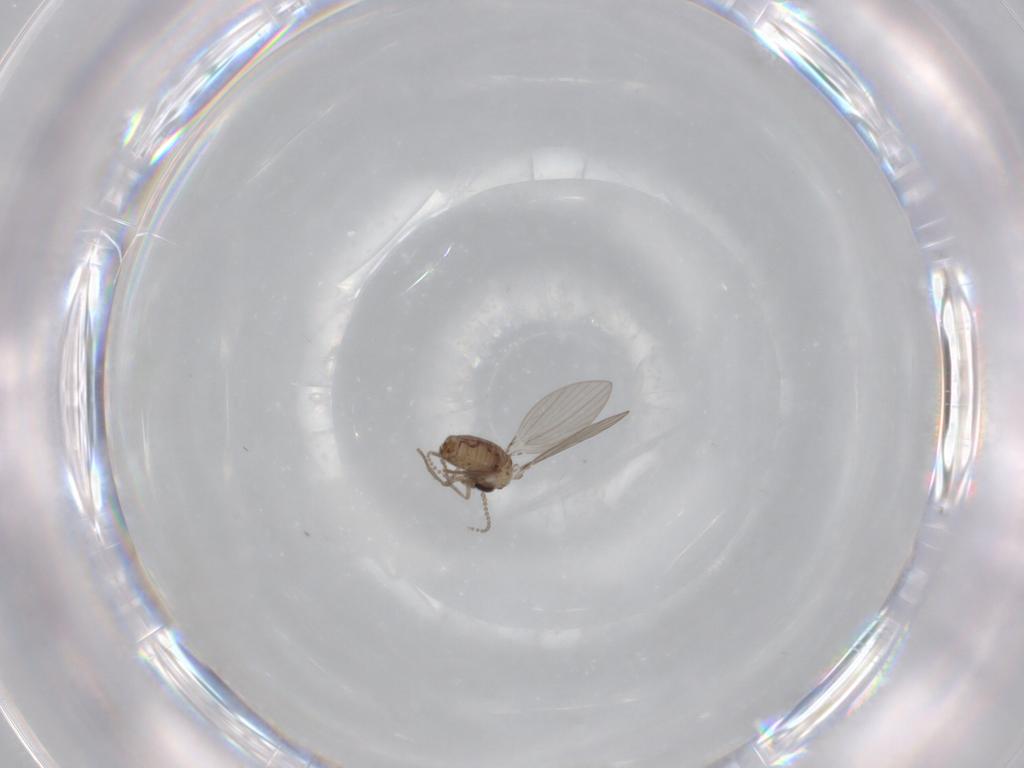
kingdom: Animalia
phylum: Arthropoda
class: Insecta
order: Diptera
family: Psychodidae
